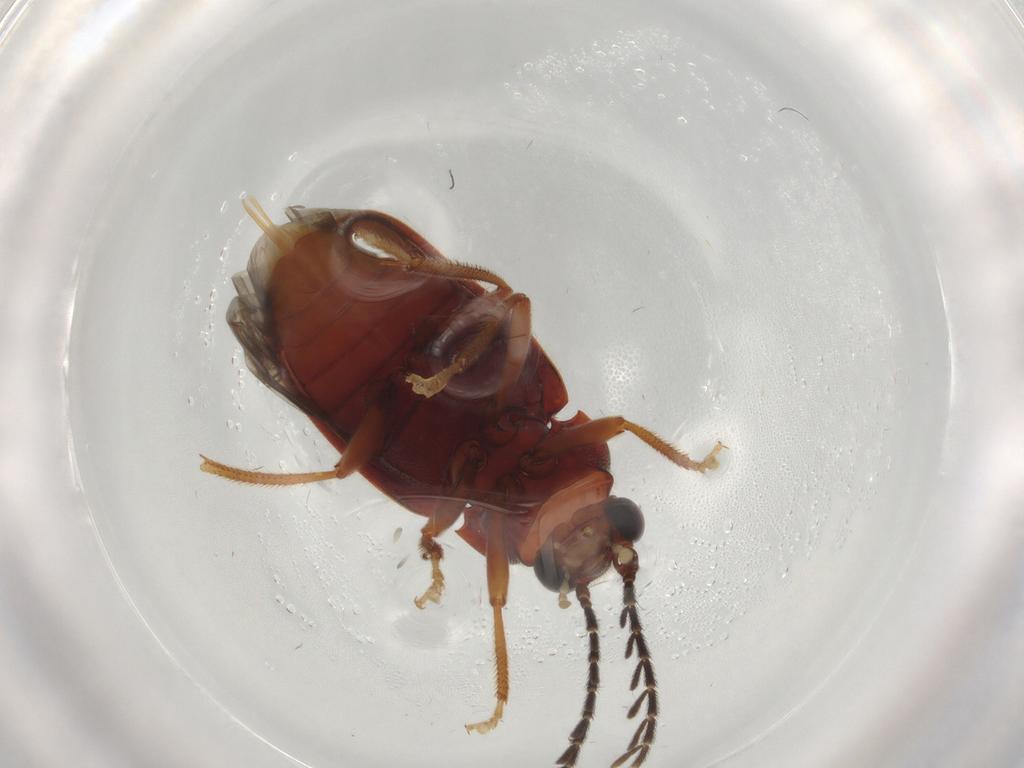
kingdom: Animalia
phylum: Arthropoda
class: Insecta
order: Coleoptera
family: Ptilodactylidae
